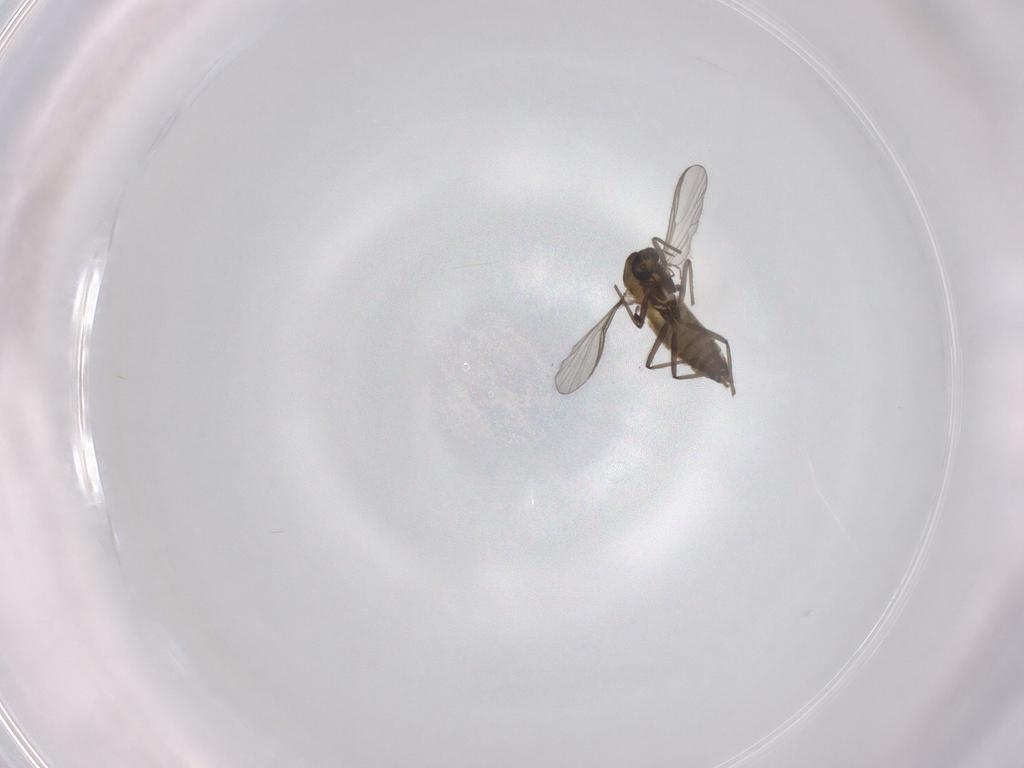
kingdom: Animalia
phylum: Arthropoda
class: Insecta
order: Diptera
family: Chironomidae
